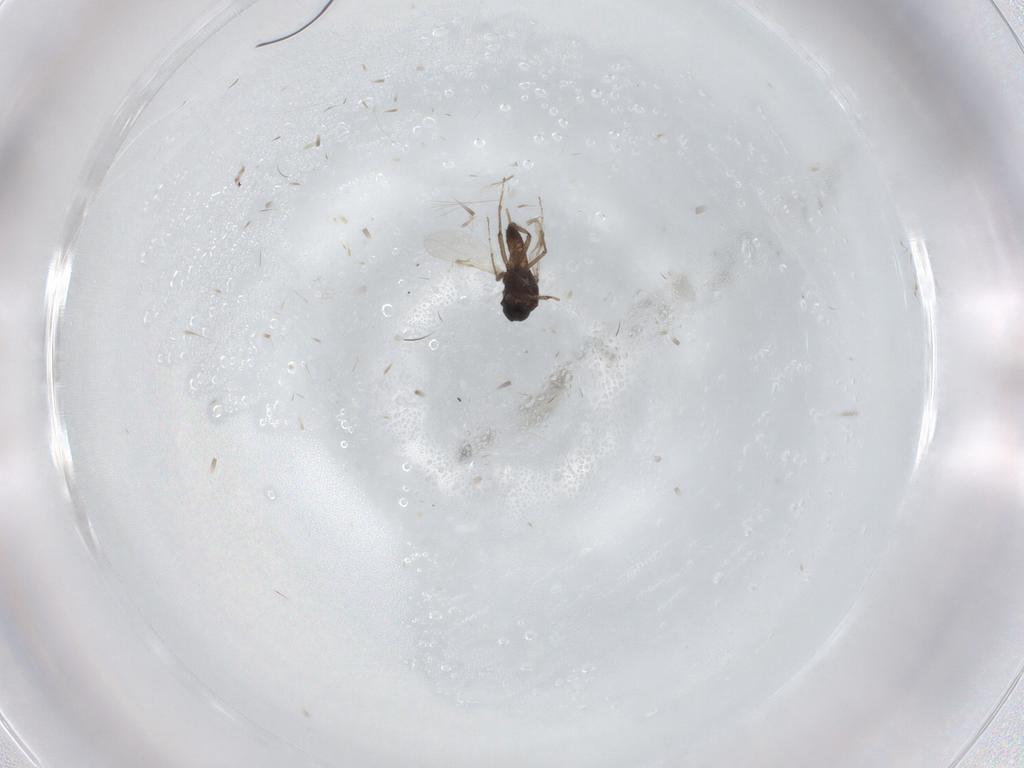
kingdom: Animalia
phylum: Arthropoda
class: Insecta
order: Diptera
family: Ceratopogonidae
